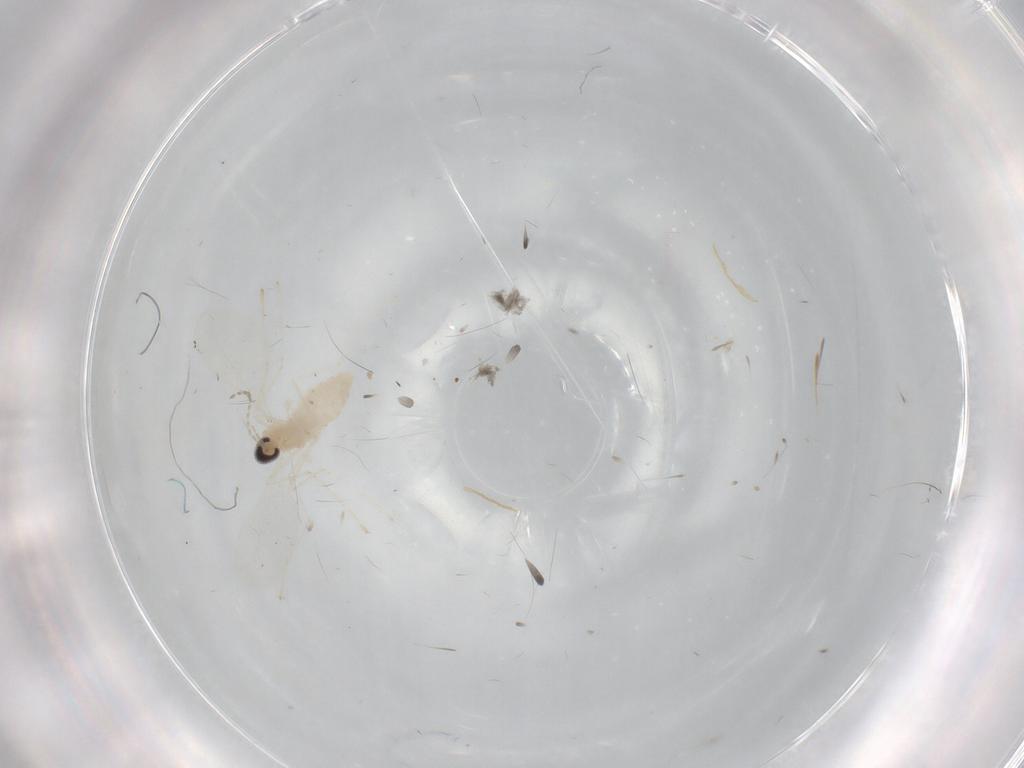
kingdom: Animalia
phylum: Arthropoda
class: Insecta
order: Diptera
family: Cecidomyiidae
